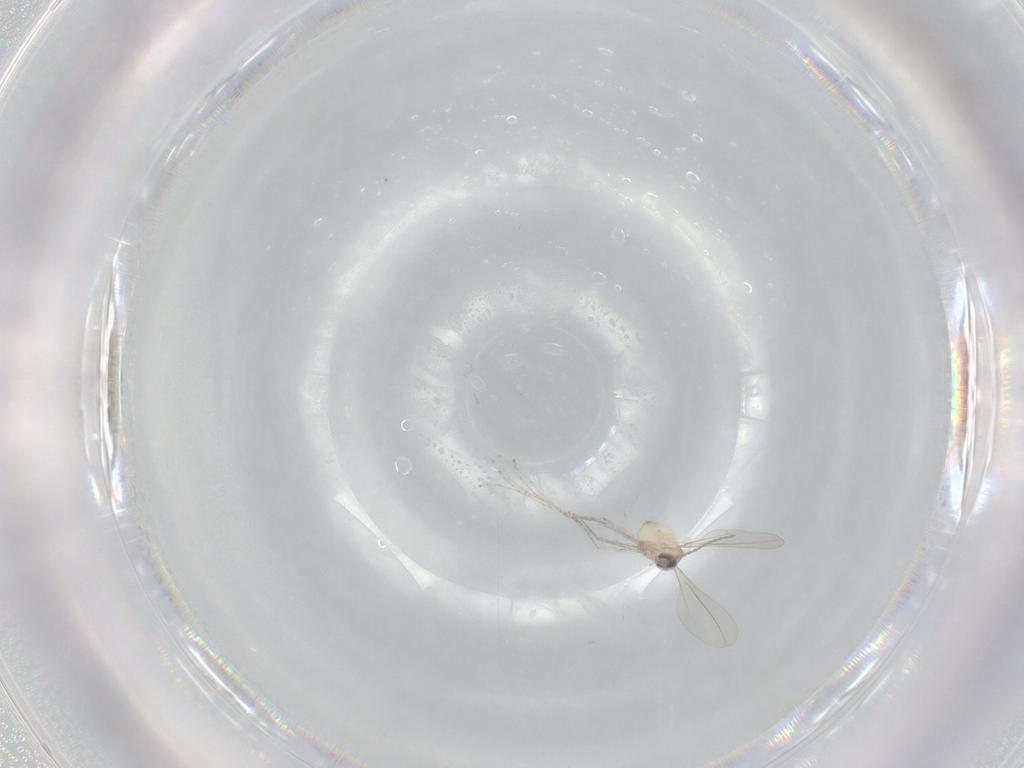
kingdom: Animalia
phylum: Arthropoda
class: Insecta
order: Diptera
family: Cecidomyiidae
